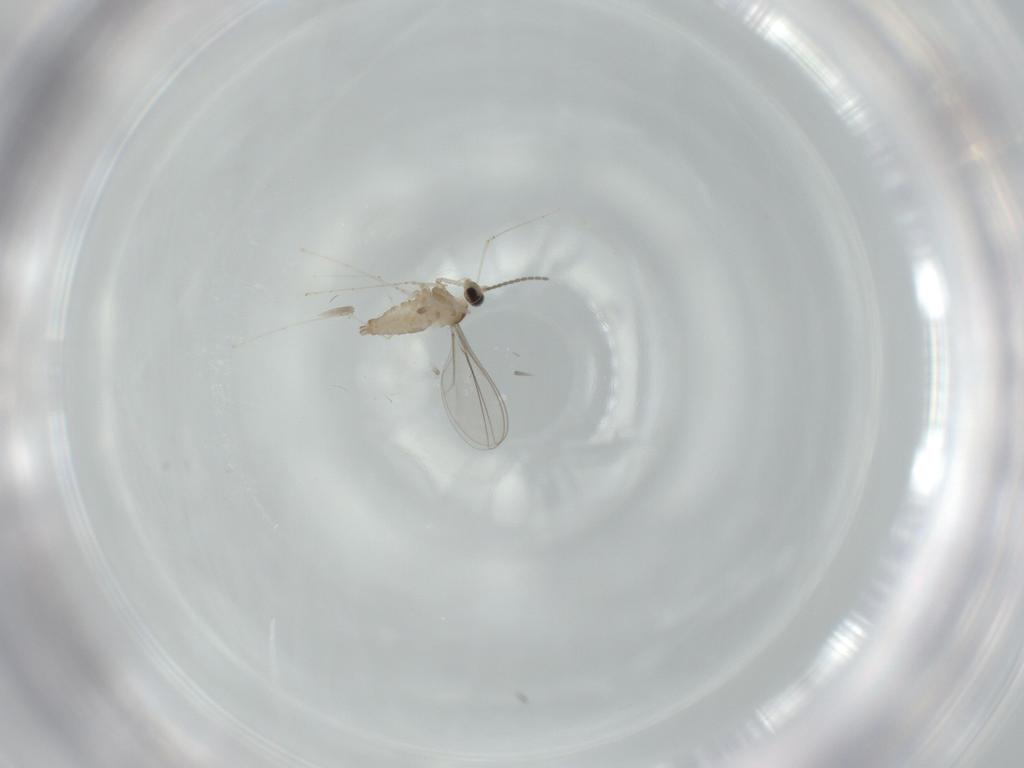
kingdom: Animalia
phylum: Arthropoda
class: Insecta
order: Diptera
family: Cecidomyiidae
